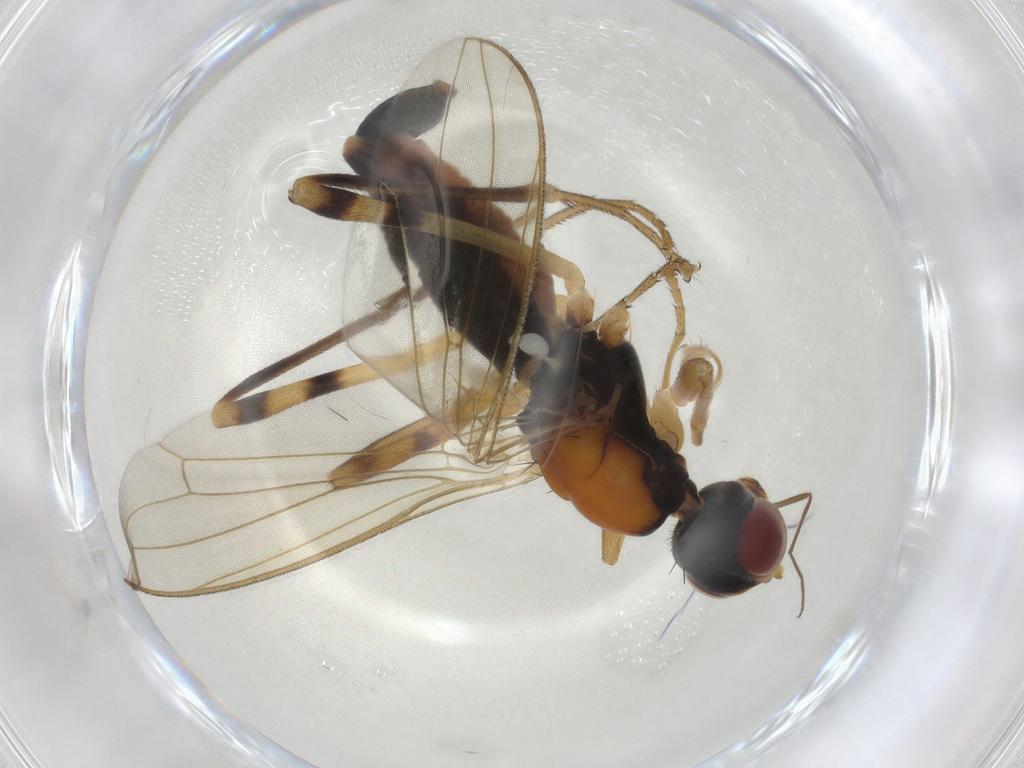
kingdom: Animalia
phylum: Arthropoda
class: Insecta
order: Diptera
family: Micropezidae
